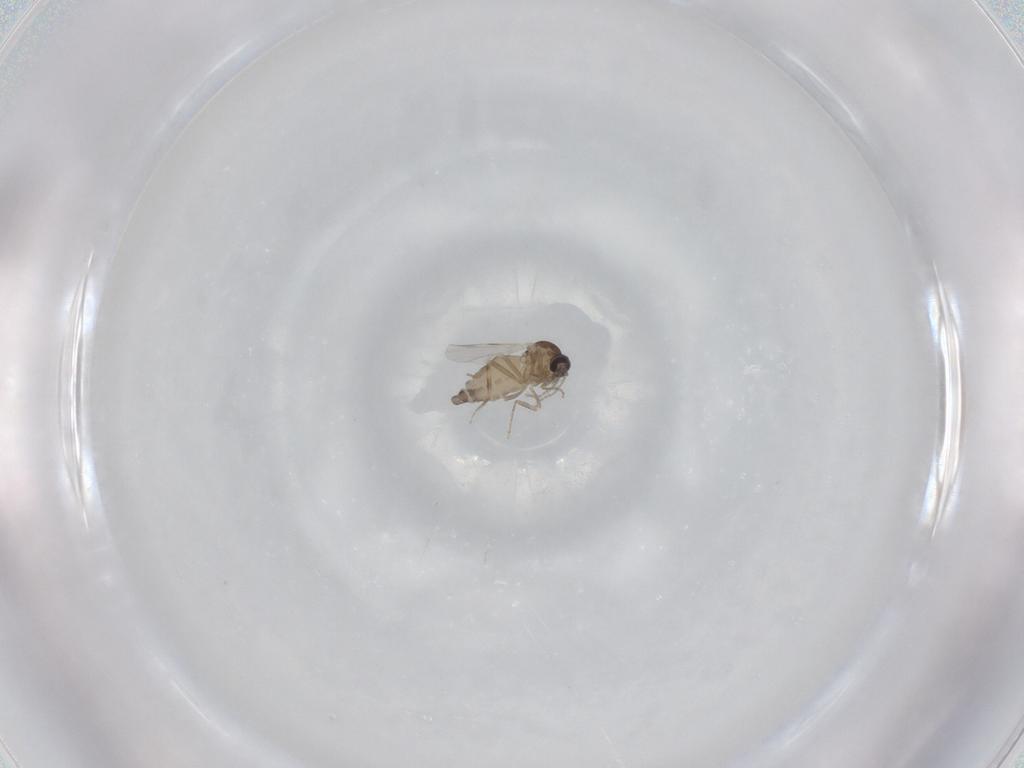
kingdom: Animalia
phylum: Arthropoda
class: Insecta
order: Diptera
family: Ceratopogonidae
